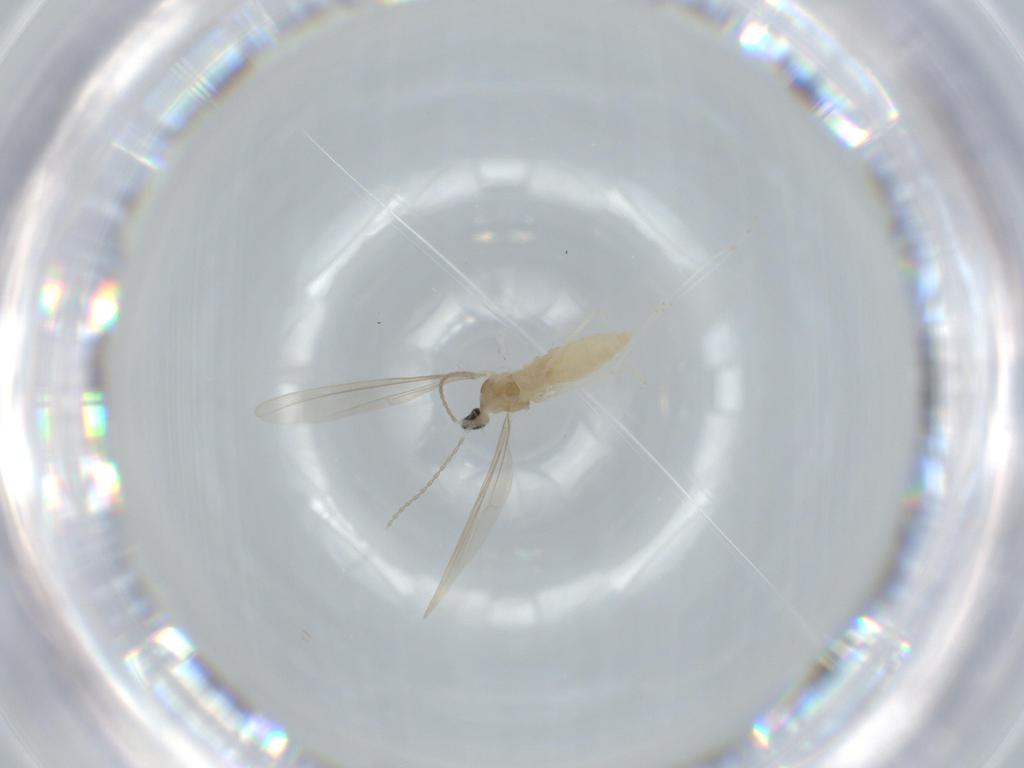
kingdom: Animalia
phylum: Arthropoda
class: Insecta
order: Diptera
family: Cecidomyiidae
